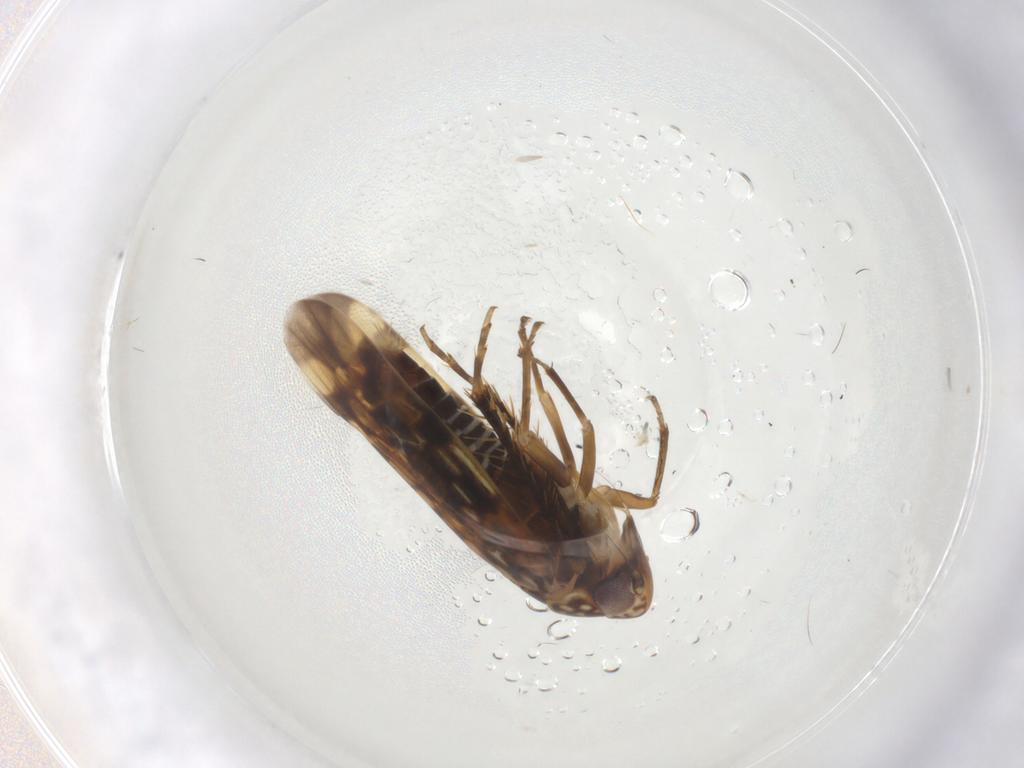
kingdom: Animalia
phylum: Arthropoda
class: Insecta
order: Hemiptera
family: Cicadellidae
